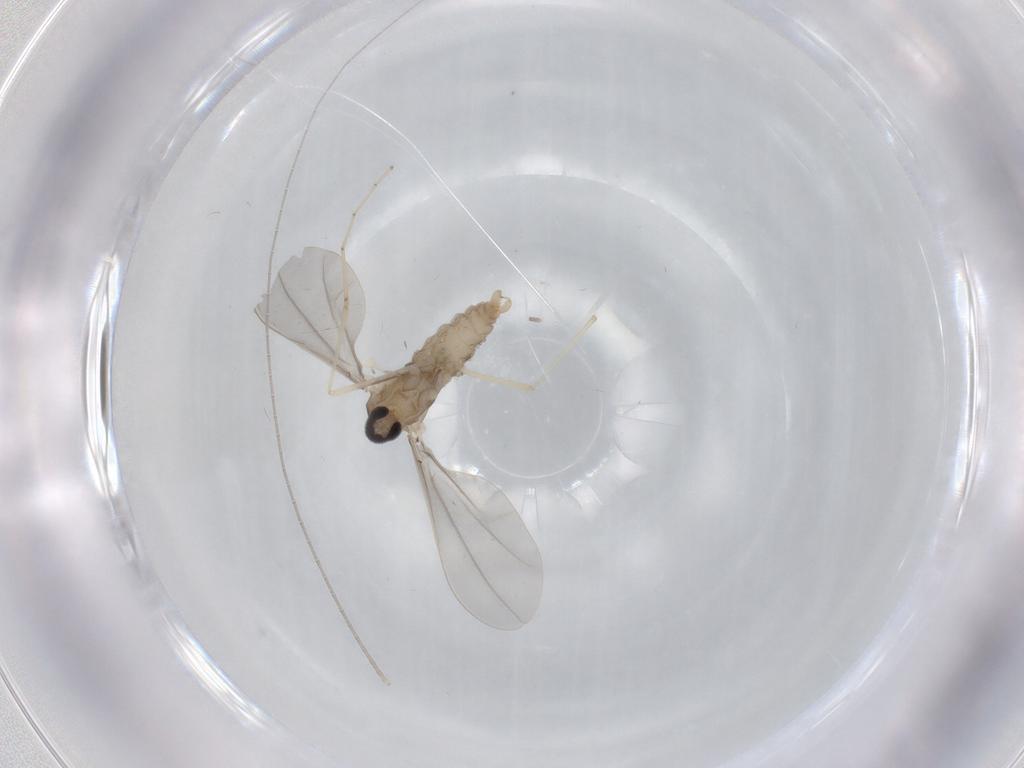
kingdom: Animalia
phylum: Arthropoda
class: Insecta
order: Diptera
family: Cecidomyiidae
